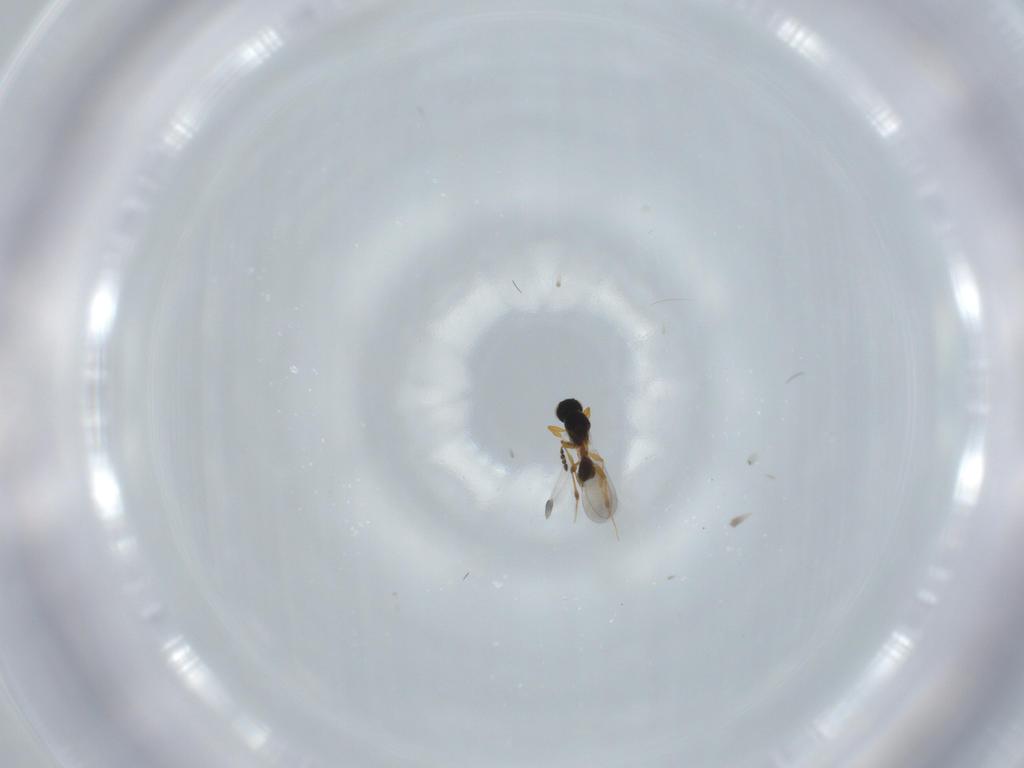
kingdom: Animalia
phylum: Arthropoda
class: Insecta
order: Hymenoptera
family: Platygastridae
